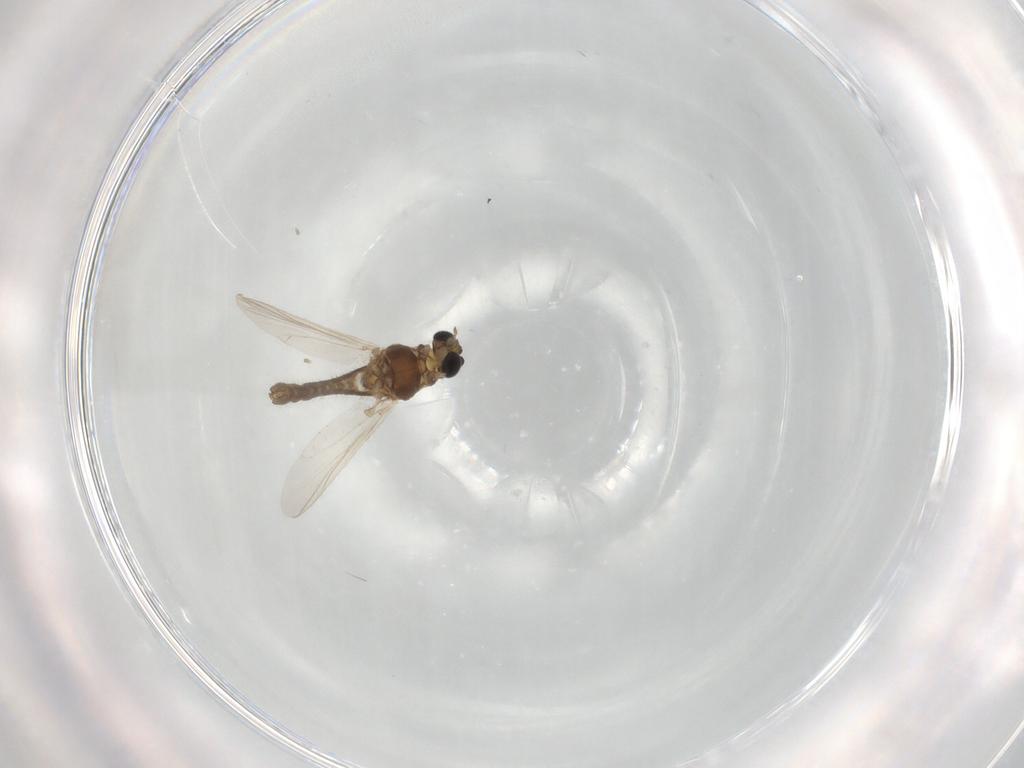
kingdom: Animalia
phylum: Arthropoda
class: Insecta
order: Diptera
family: Chironomidae
